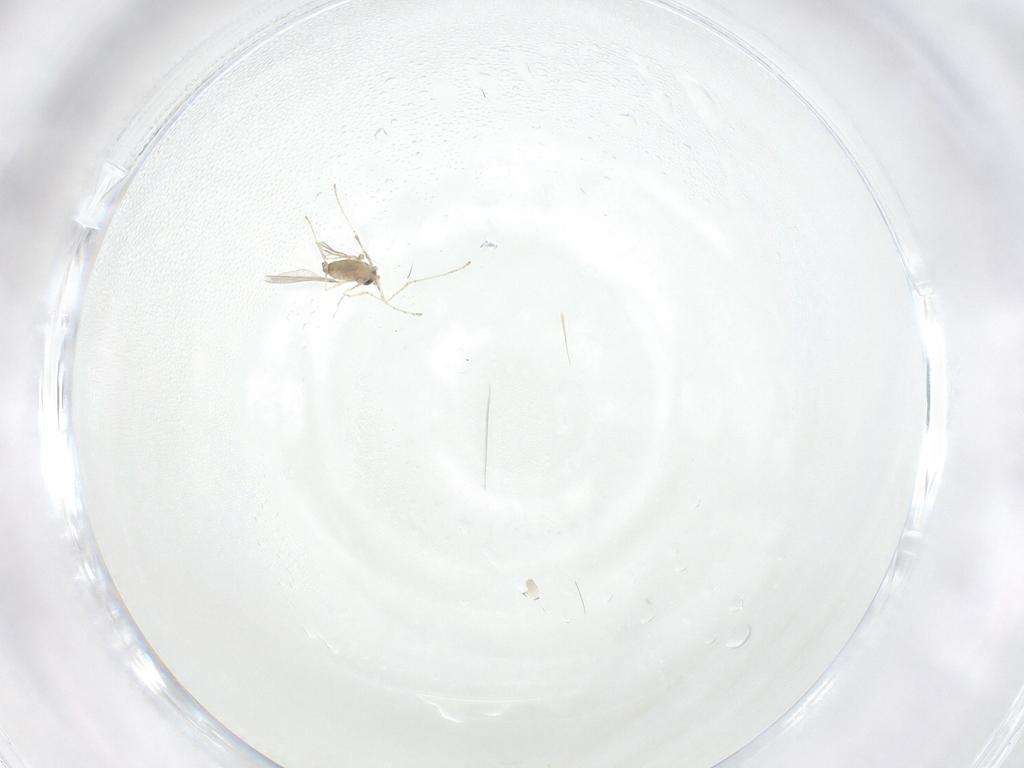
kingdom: Animalia
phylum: Arthropoda
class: Insecta
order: Diptera
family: Cecidomyiidae
